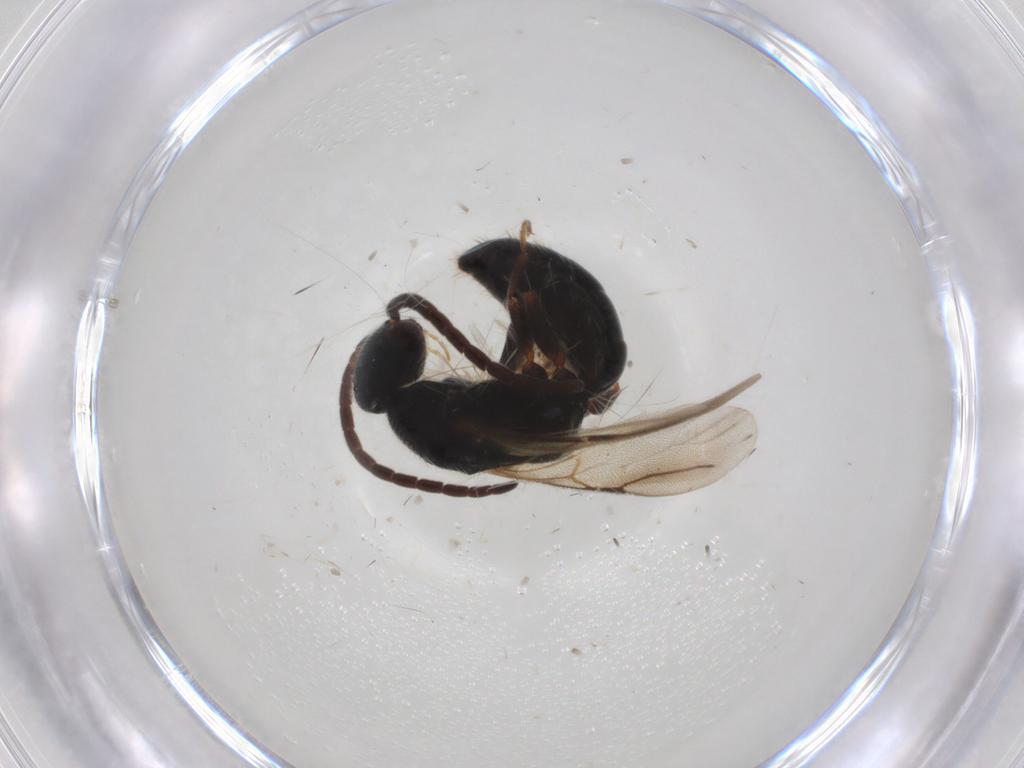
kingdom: Animalia
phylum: Arthropoda
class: Insecta
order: Hymenoptera
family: Bethylidae
